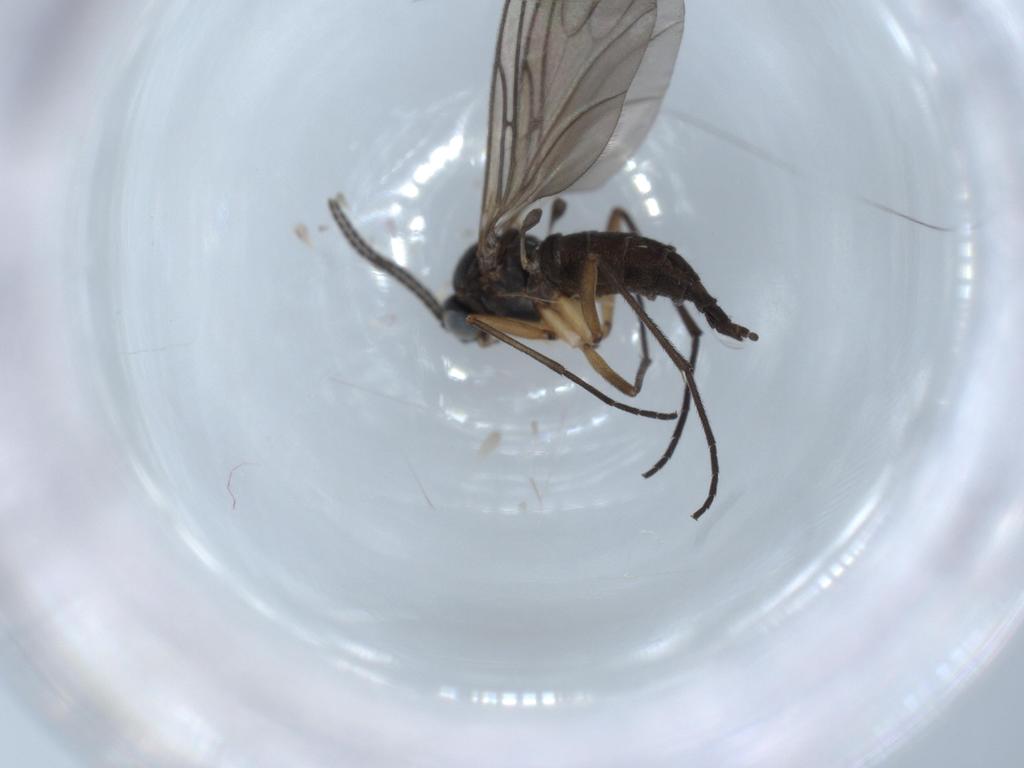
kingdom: Animalia
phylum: Arthropoda
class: Insecta
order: Diptera
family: Sciaridae
